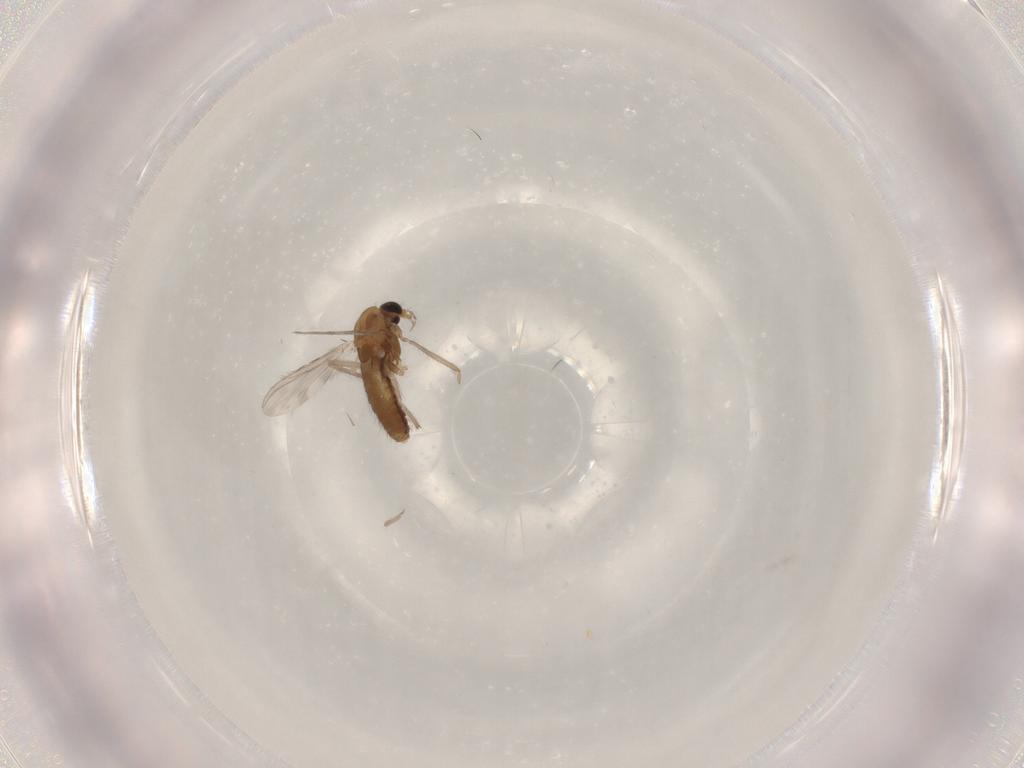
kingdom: Animalia
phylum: Arthropoda
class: Insecta
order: Diptera
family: Chironomidae
